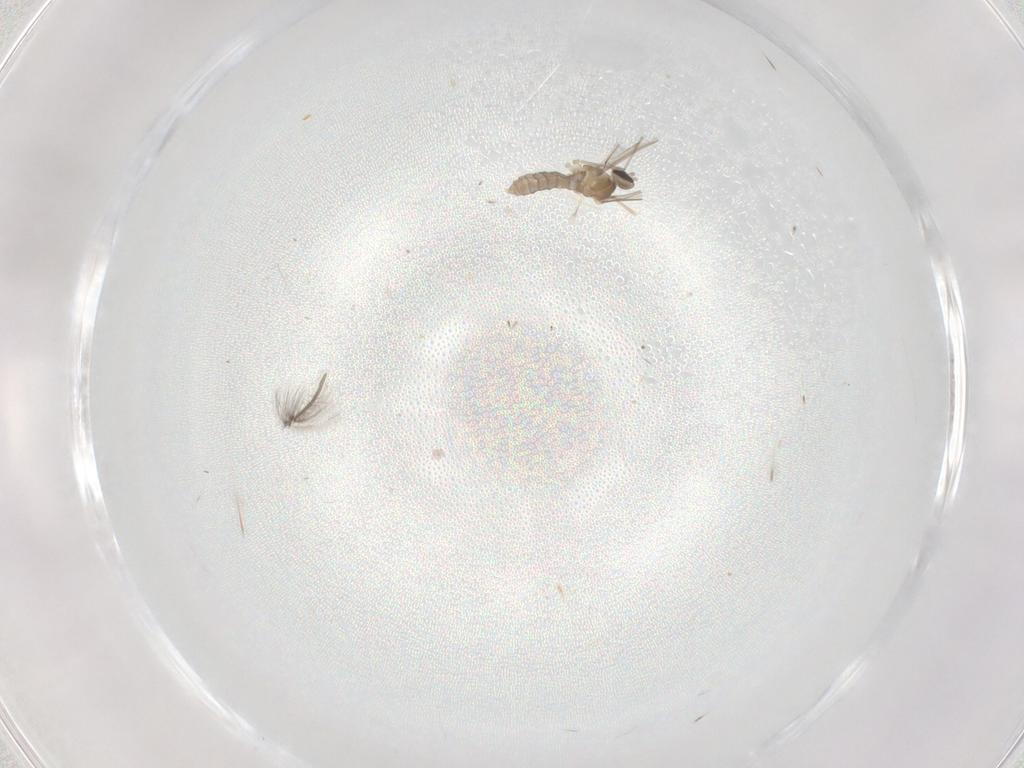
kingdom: Animalia
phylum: Arthropoda
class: Insecta
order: Diptera
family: Cecidomyiidae
